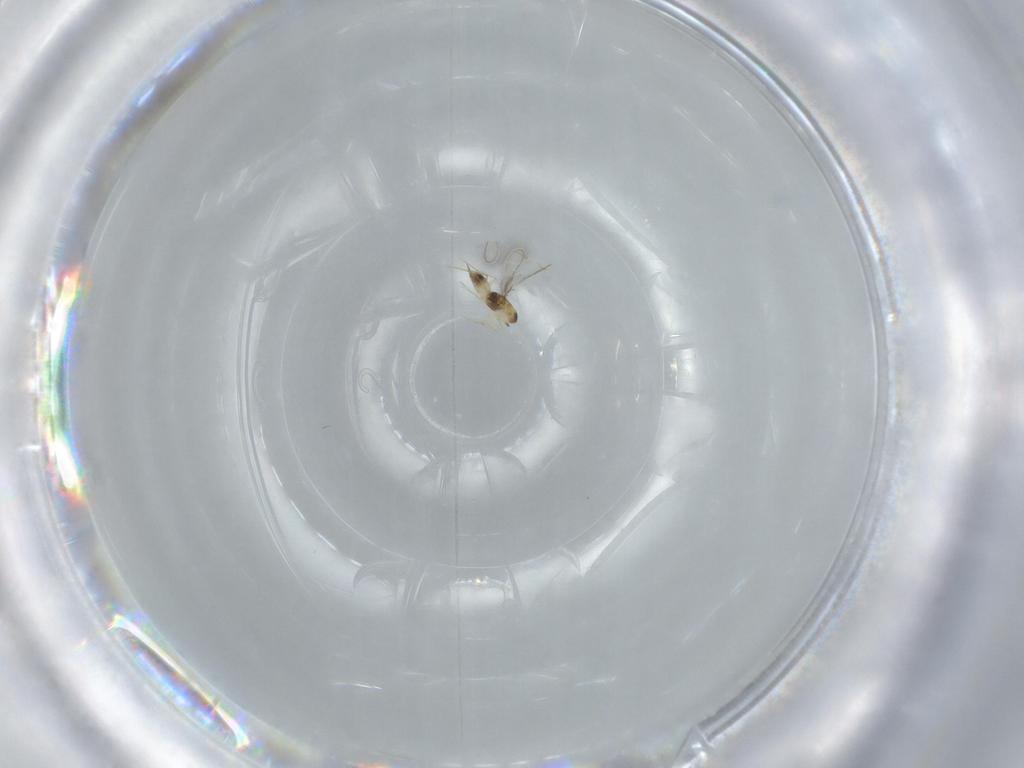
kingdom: Animalia
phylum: Arthropoda
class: Insecta
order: Hymenoptera
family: Mymaridae
